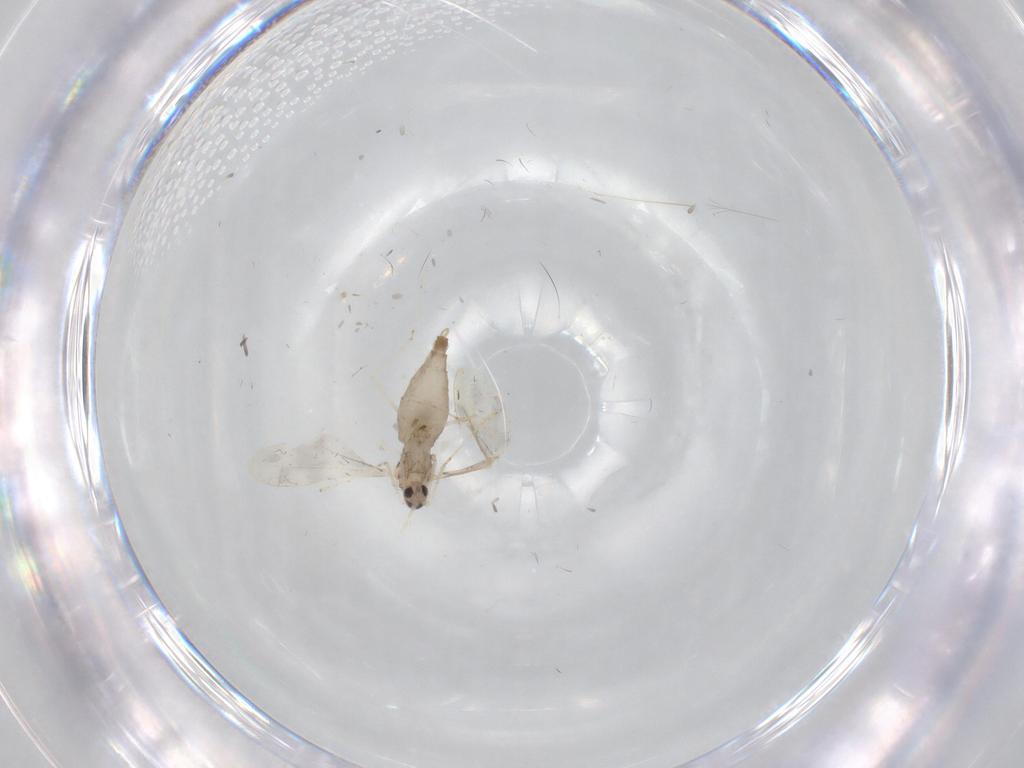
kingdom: Animalia
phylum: Arthropoda
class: Insecta
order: Diptera
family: Cecidomyiidae
